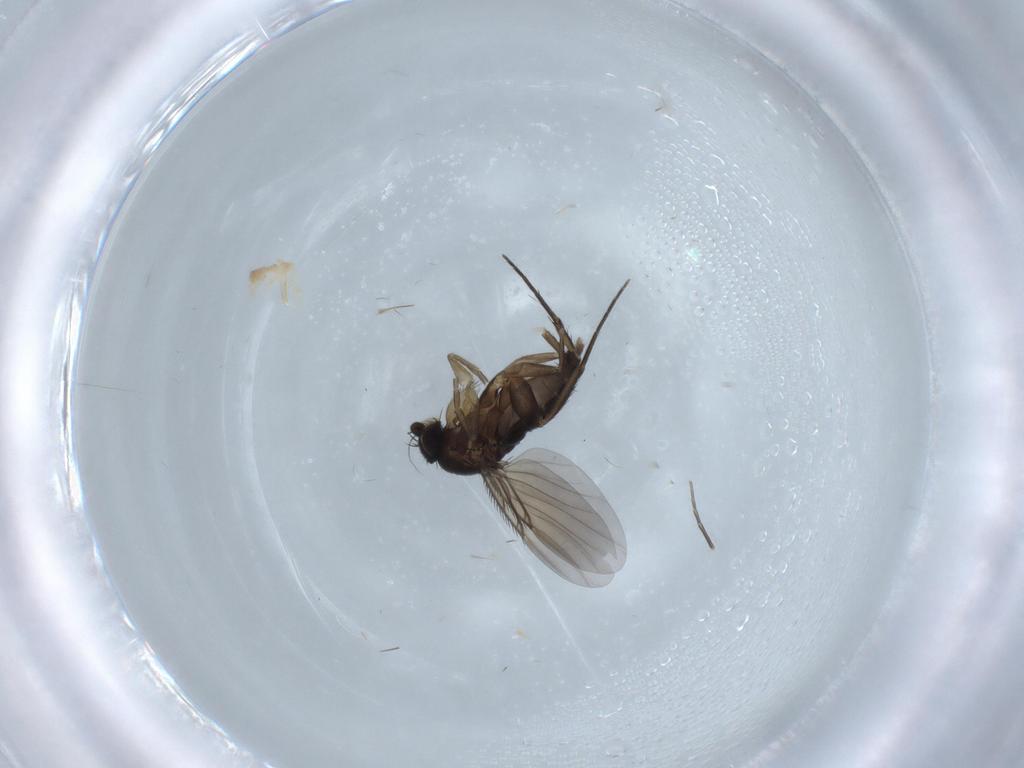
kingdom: Animalia
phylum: Arthropoda
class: Insecta
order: Diptera
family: Phoridae
